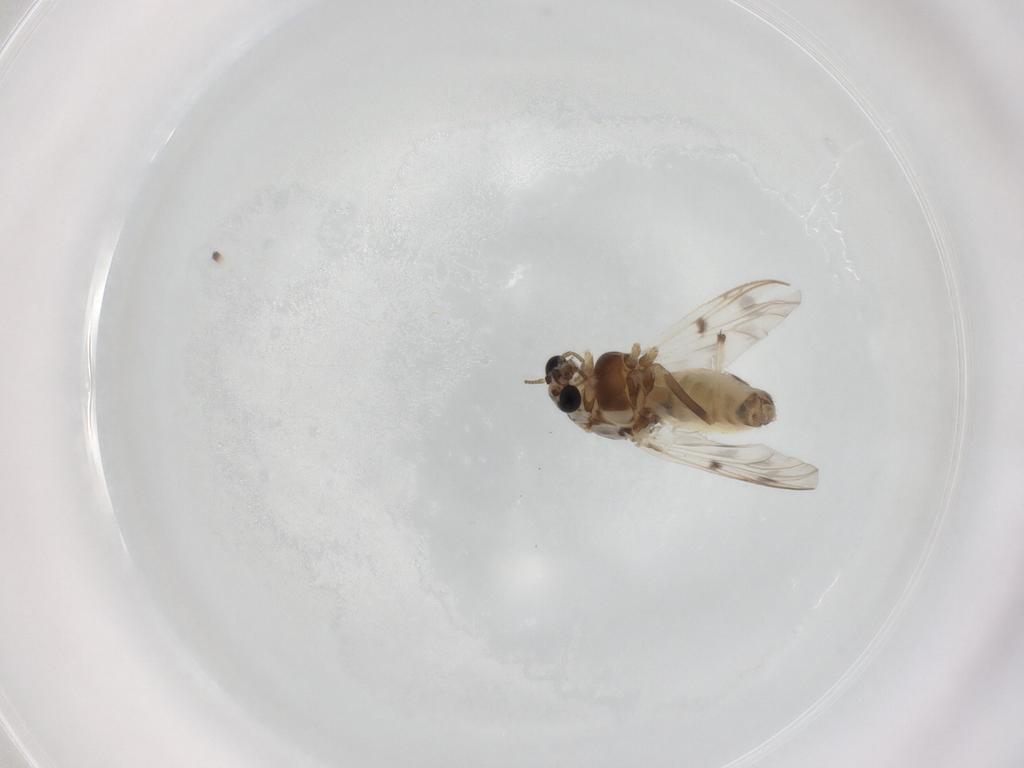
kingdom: Animalia
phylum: Arthropoda
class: Insecta
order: Diptera
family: Chironomidae
